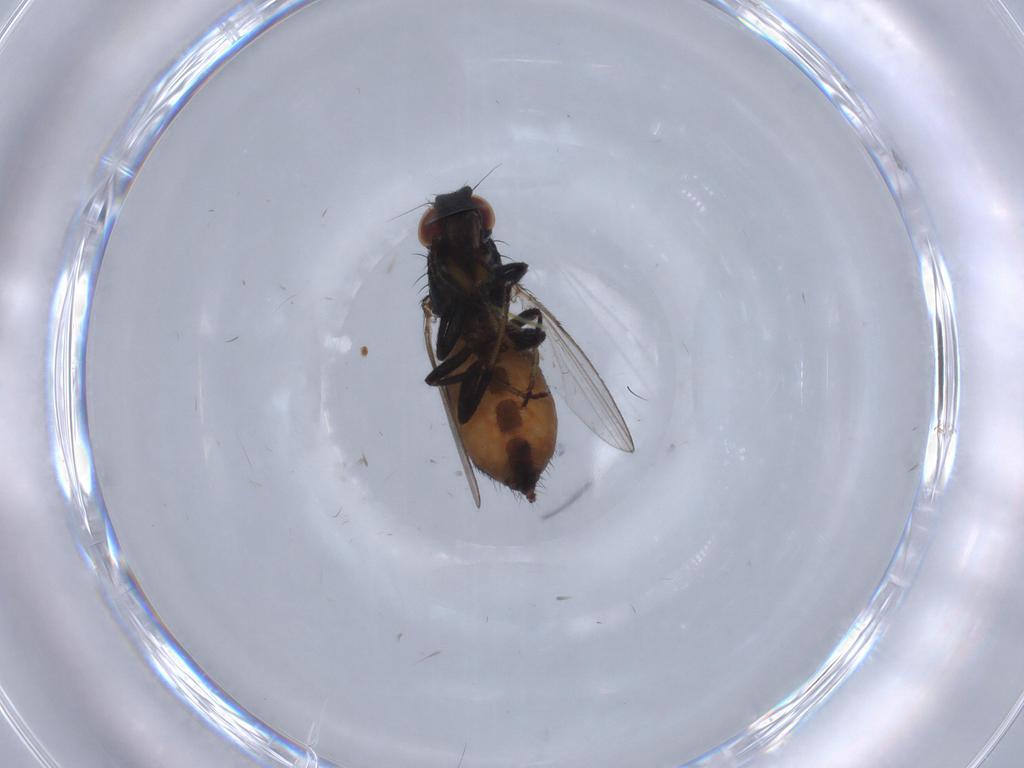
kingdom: Animalia
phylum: Arthropoda
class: Insecta
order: Diptera
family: Milichiidae
